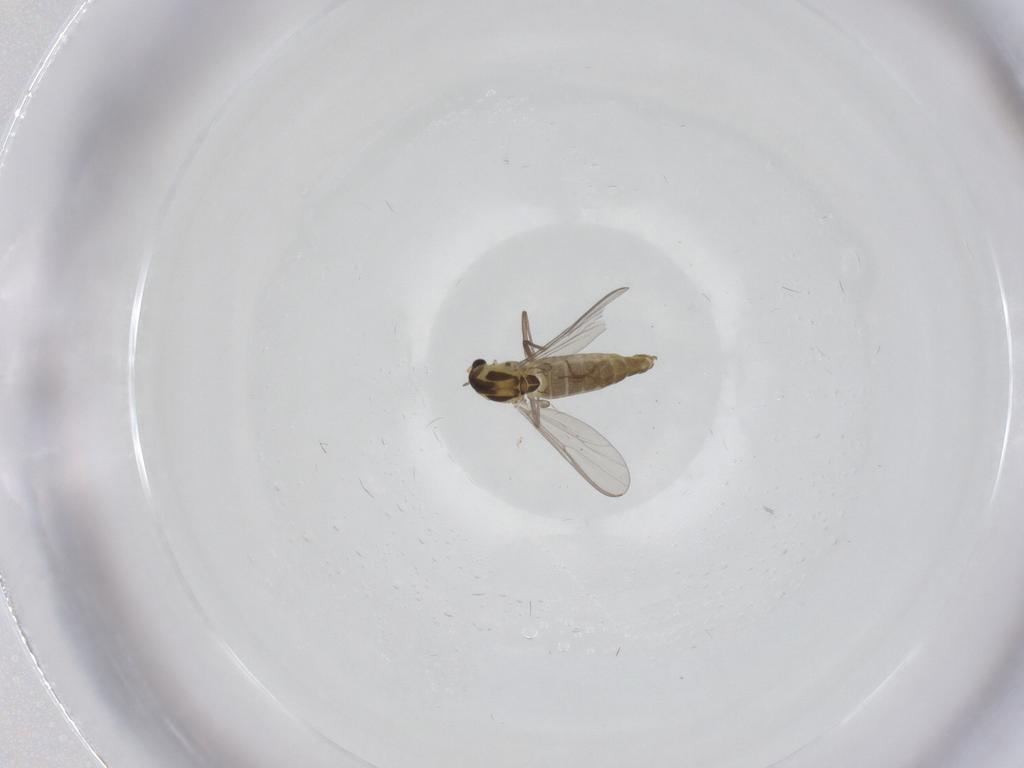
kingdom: Animalia
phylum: Arthropoda
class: Insecta
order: Diptera
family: Chironomidae
